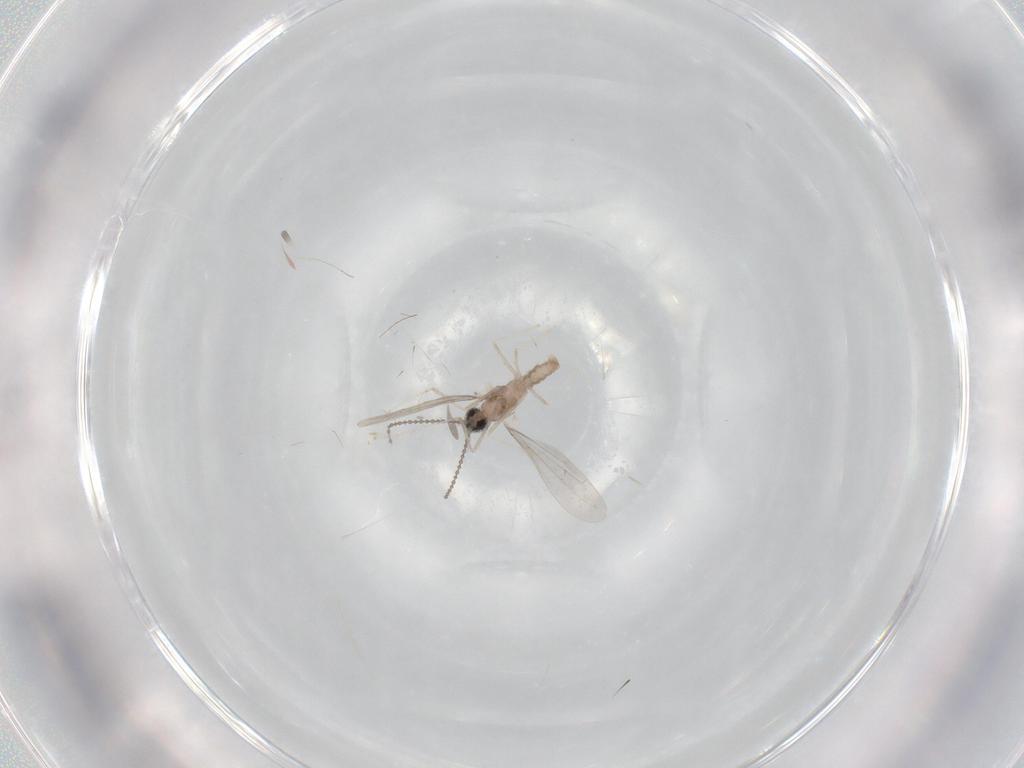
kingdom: Animalia
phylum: Arthropoda
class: Insecta
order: Diptera
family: Cecidomyiidae
